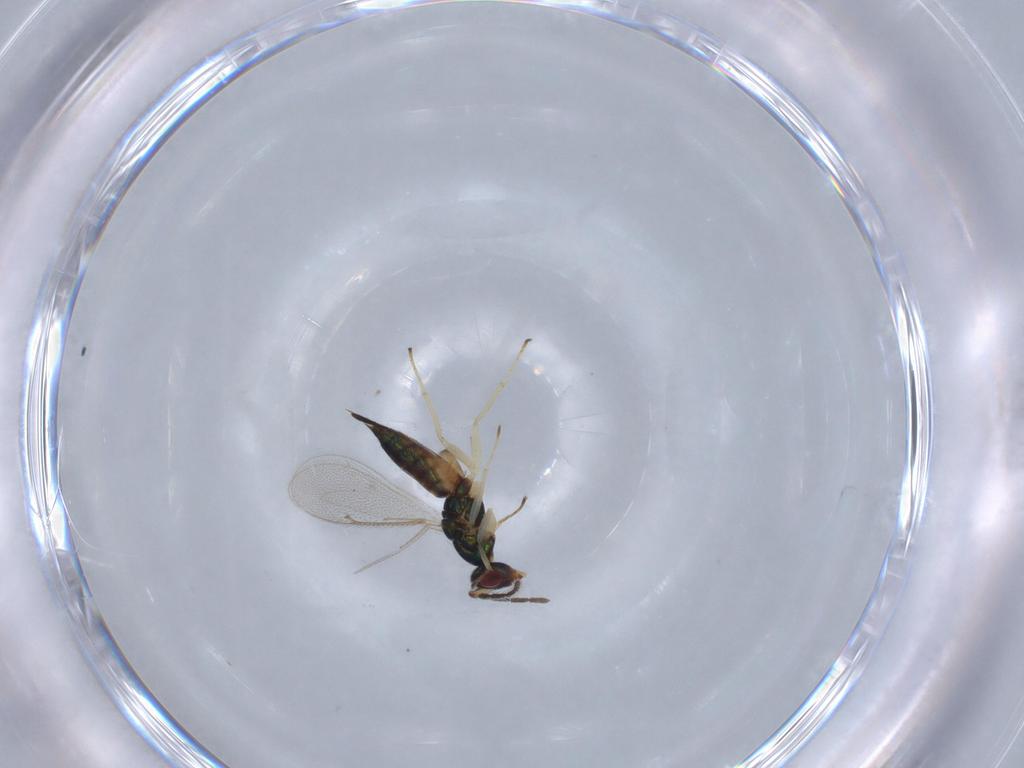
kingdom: Animalia
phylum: Arthropoda
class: Insecta
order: Hymenoptera
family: Eulophidae
